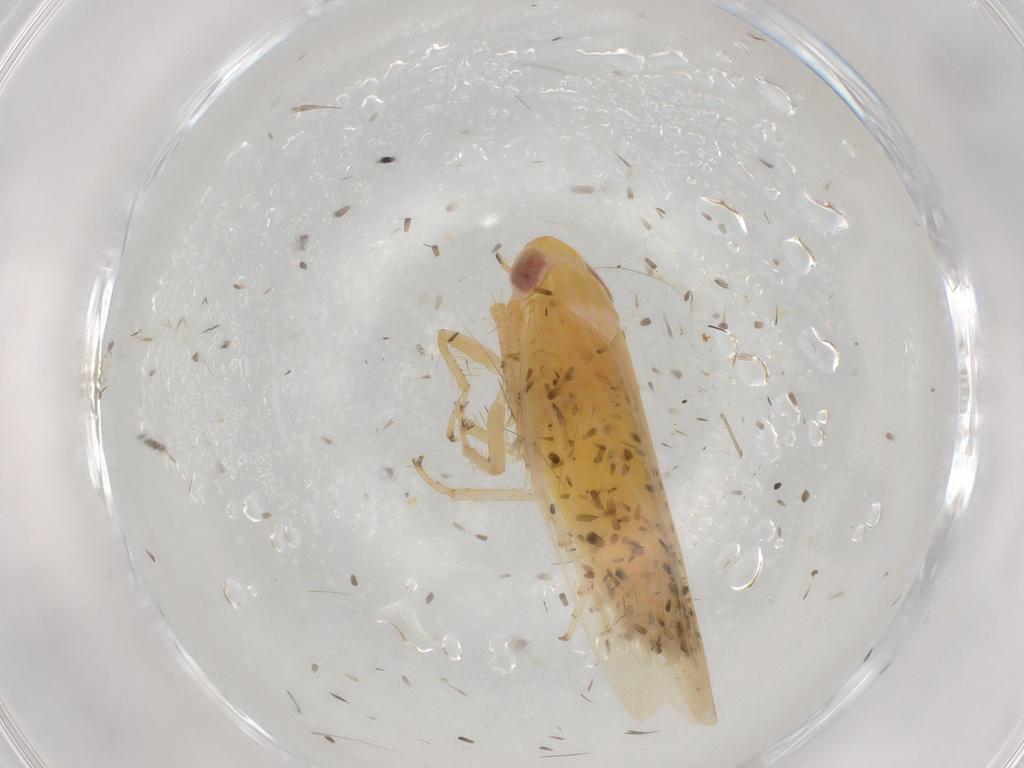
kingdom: Animalia
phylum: Arthropoda
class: Insecta
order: Hemiptera
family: Cicadellidae
